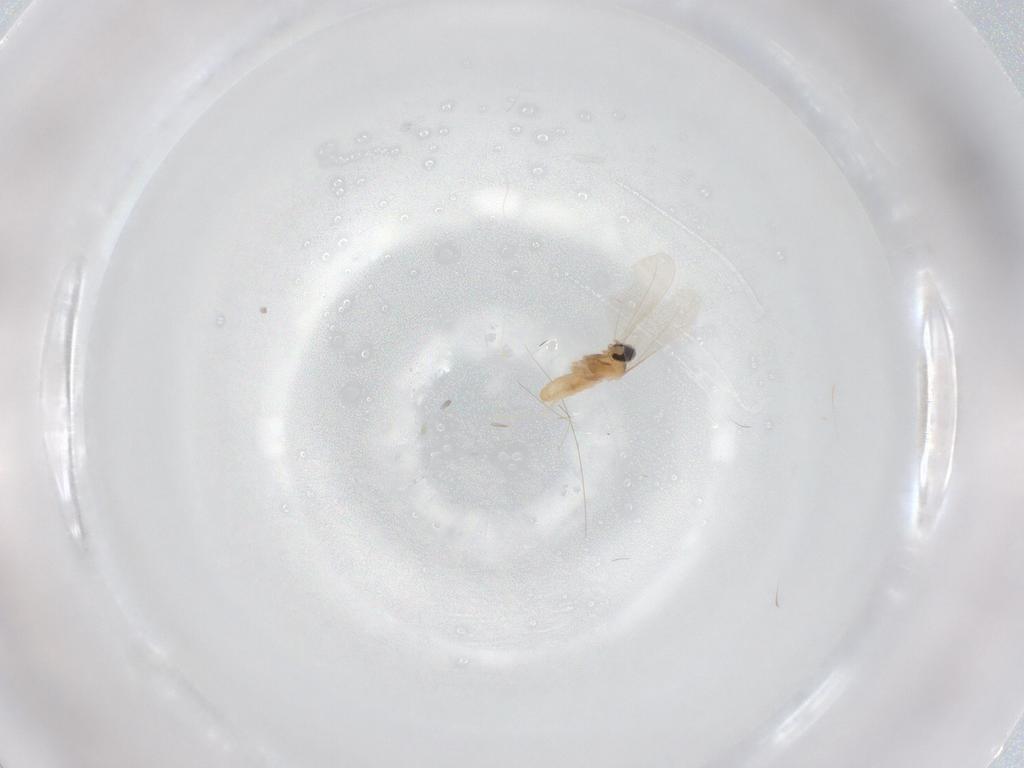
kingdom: Animalia
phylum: Arthropoda
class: Insecta
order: Diptera
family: Cecidomyiidae
